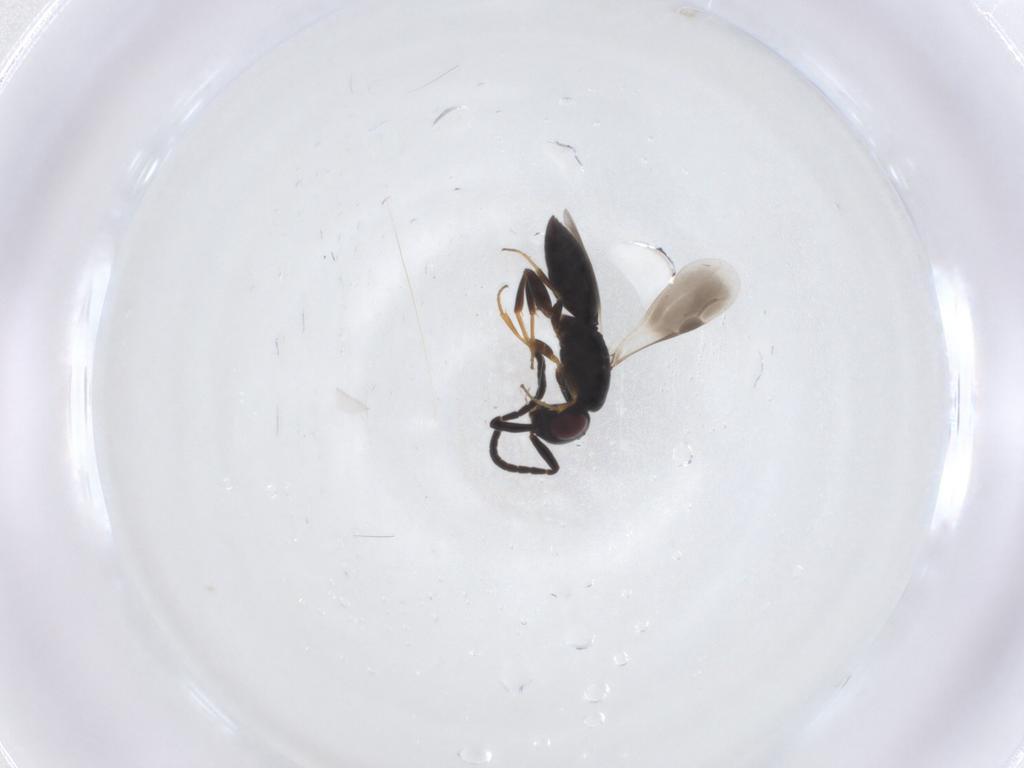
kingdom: Animalia
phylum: Arthropoda
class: Insecta
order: Hymenoptera
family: Megaspilidae
